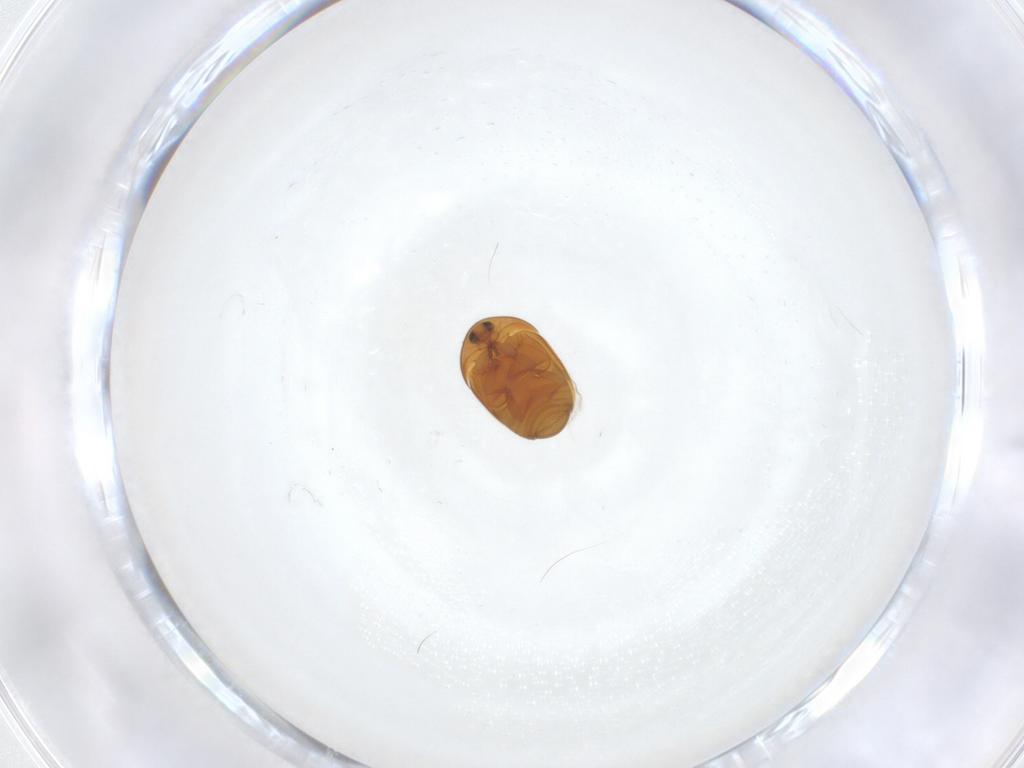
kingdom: Animalia
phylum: Arthropoda
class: Insecta
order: Coleoptera
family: Corylophidae
